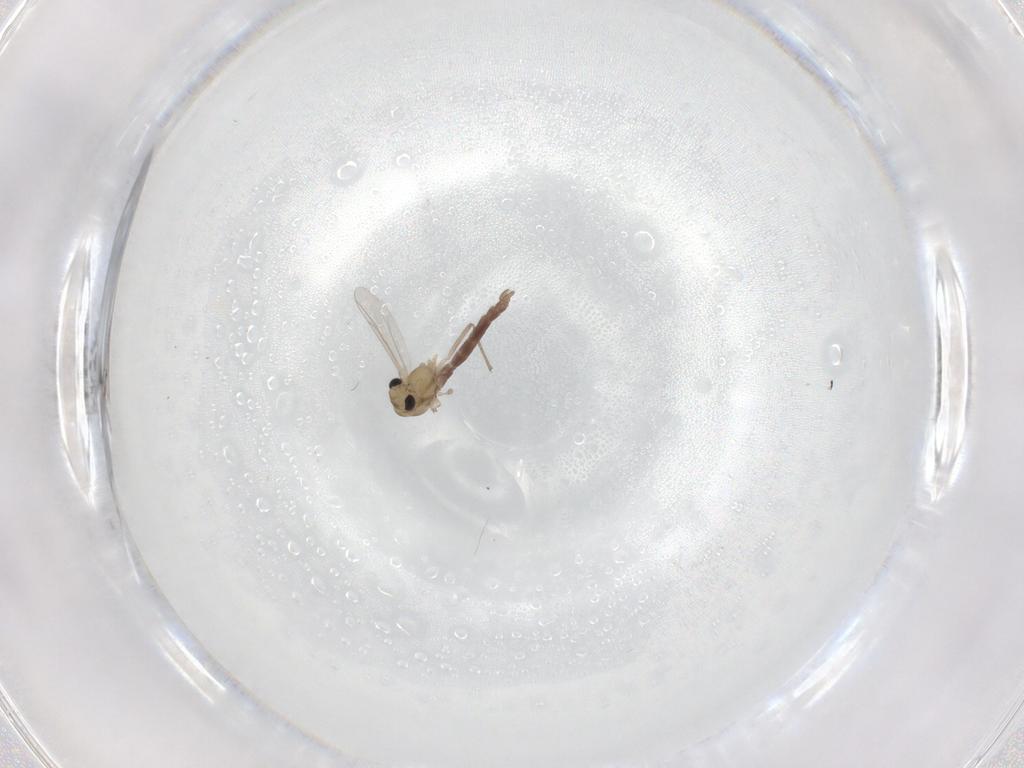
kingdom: Animalia
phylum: Arthropoda
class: Insecta
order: Diptera
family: Chironomidae
